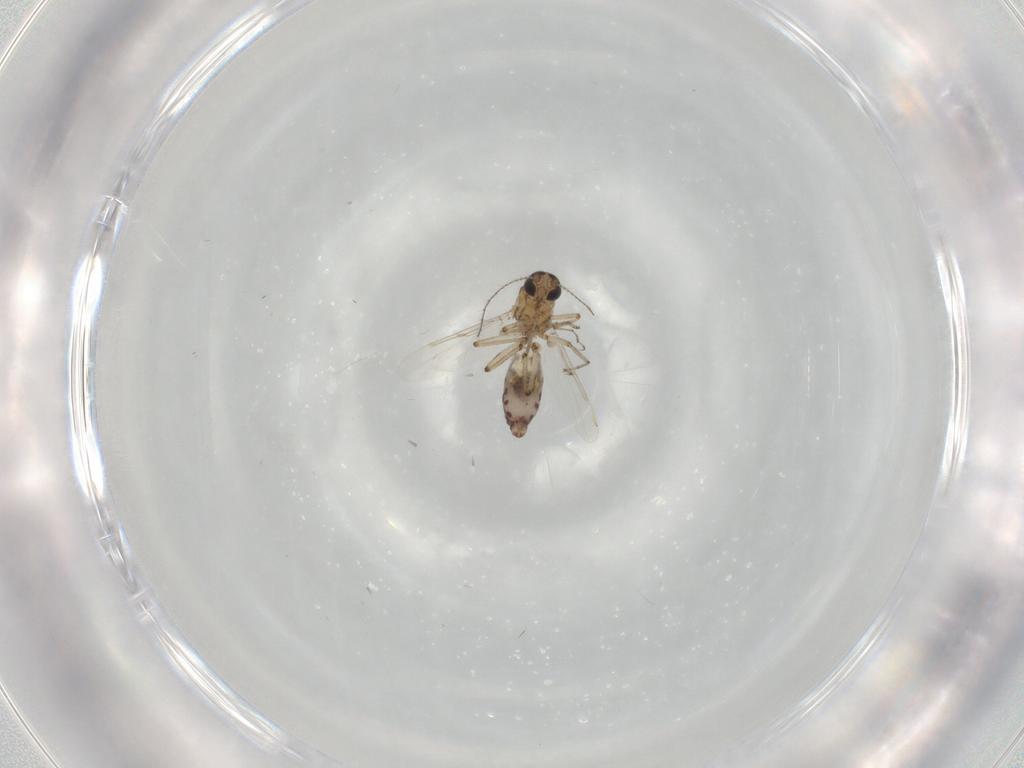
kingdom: Animalia
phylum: Arthropoda
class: Insecta
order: Diptera
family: Ceratopogonidae
